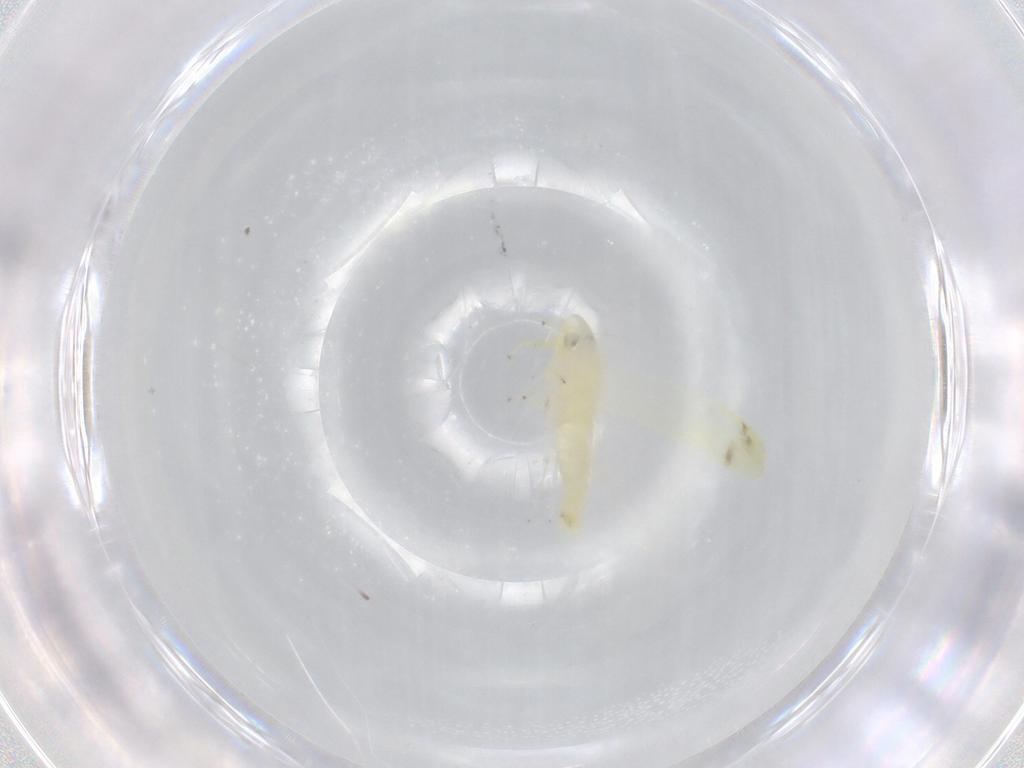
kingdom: Animalia
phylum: Arthropoda
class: Insecta
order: Hemiptera
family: Cicadellidae
